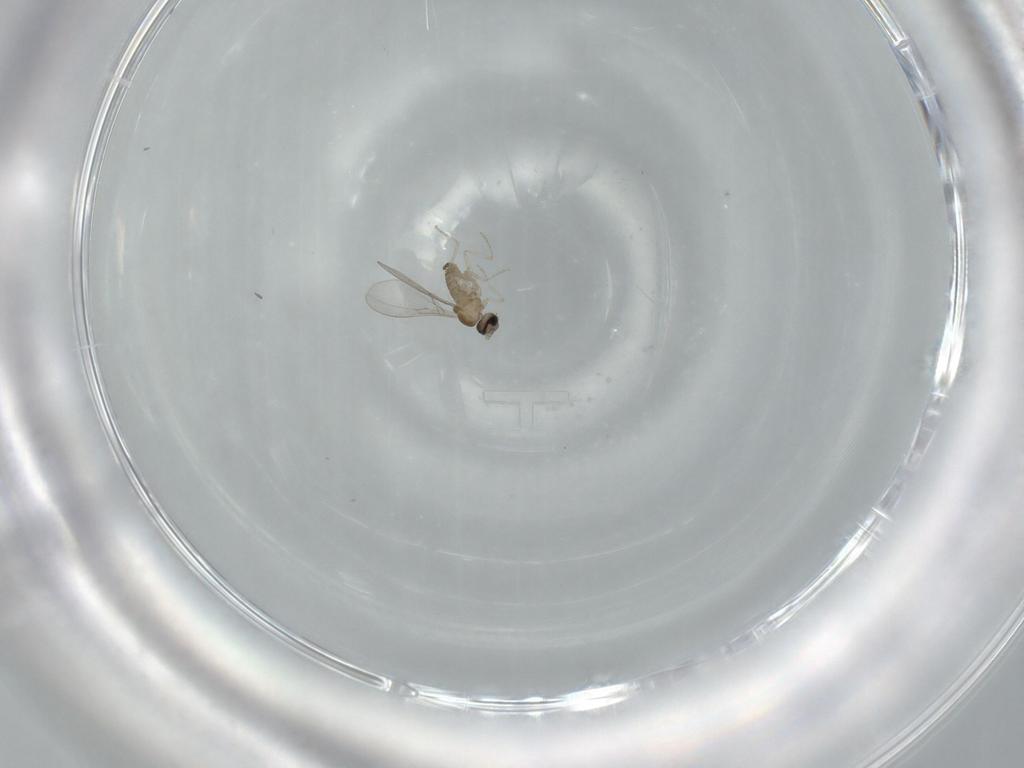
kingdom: Animalia
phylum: Arthropoda
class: Insecta
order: Diptera
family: Cecidomyiidae
